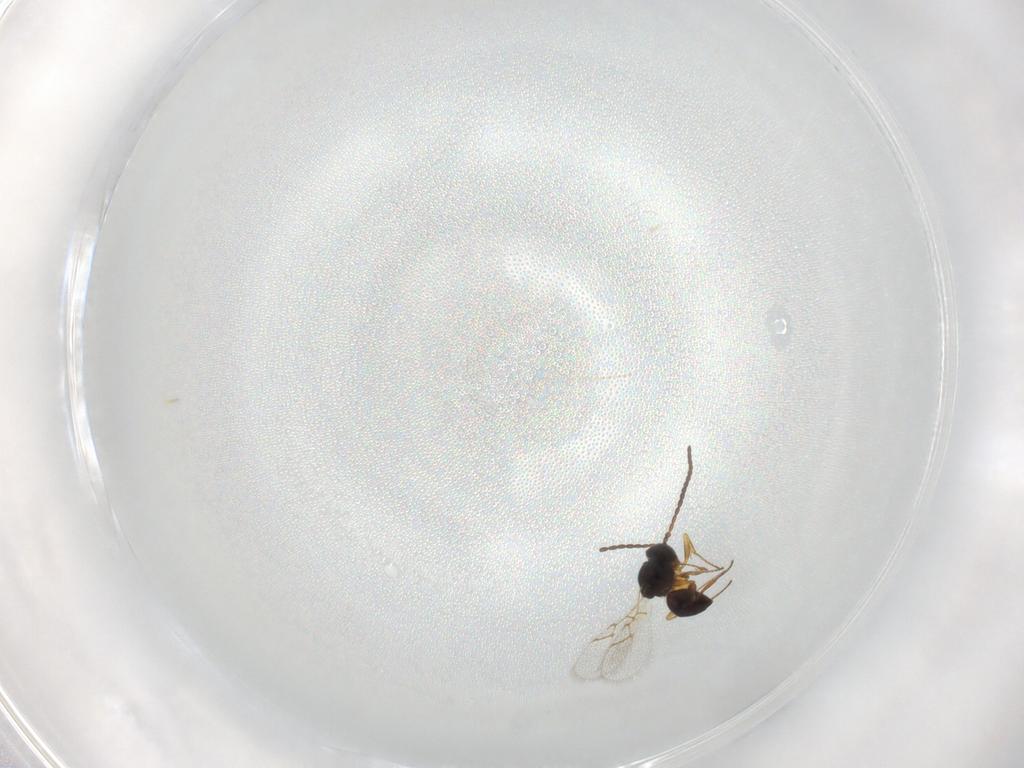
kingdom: Animalia
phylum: Arthropoda
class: Insecta
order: Hymenoptera
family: Figitidae
